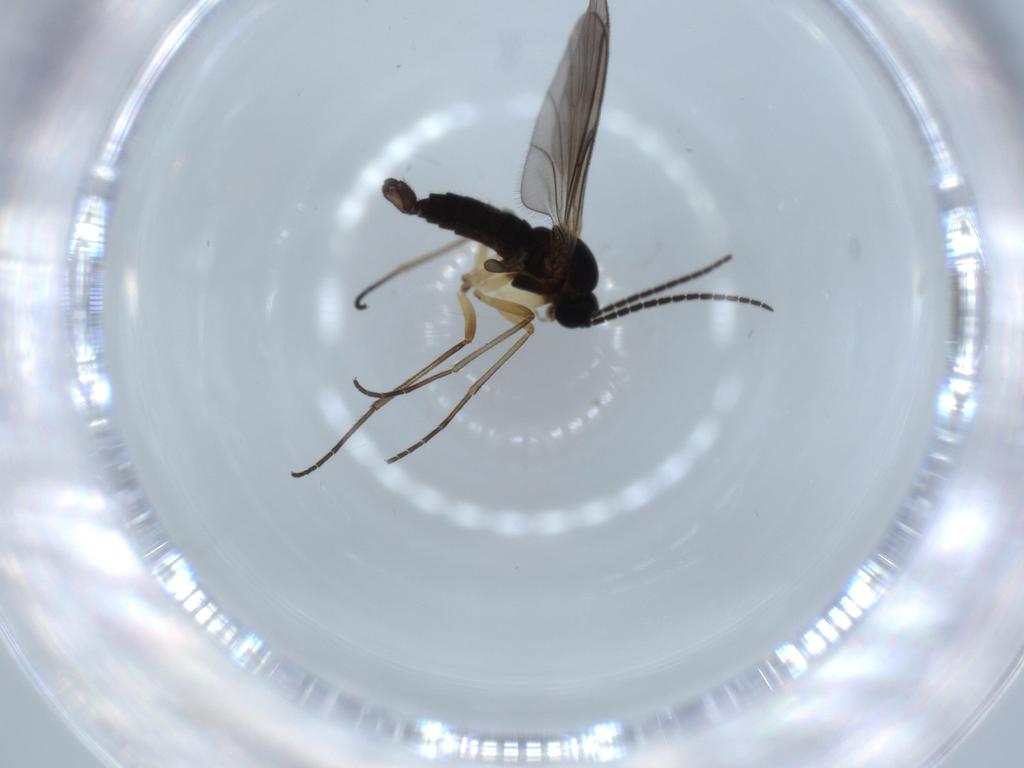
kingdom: Animalia
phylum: Arthropoda
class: Insecta
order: Diptera
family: Sciaridae
